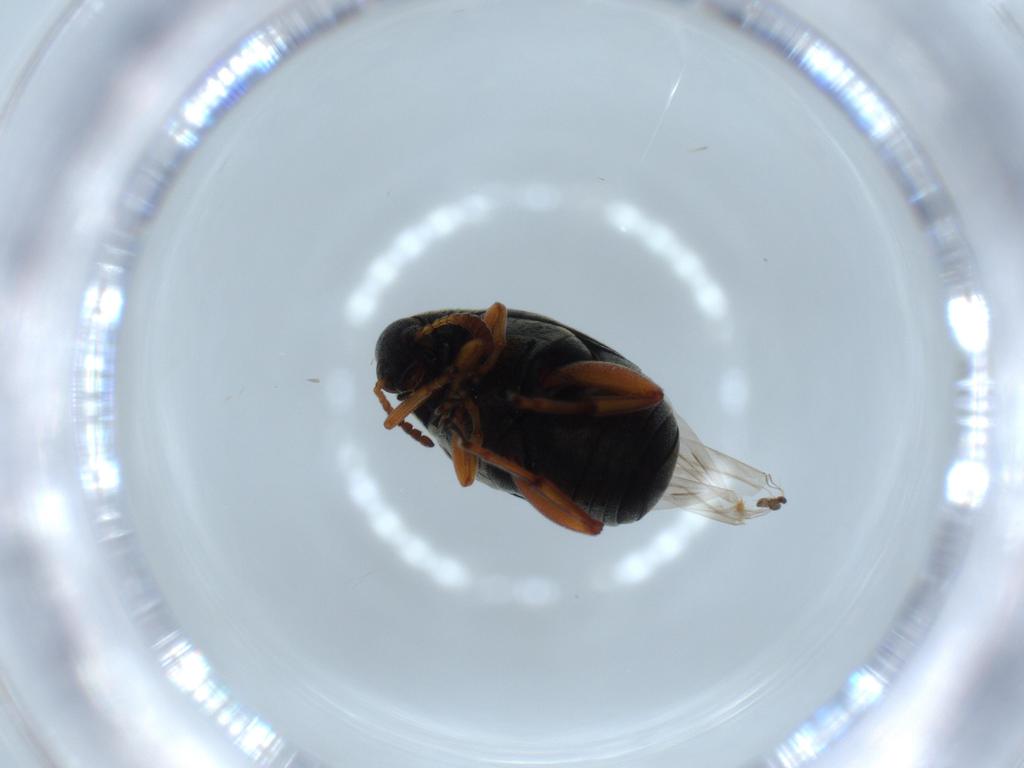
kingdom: Animalia
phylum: Arthropoda
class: Insecta
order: Coleoptera
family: Chrysomelidae
